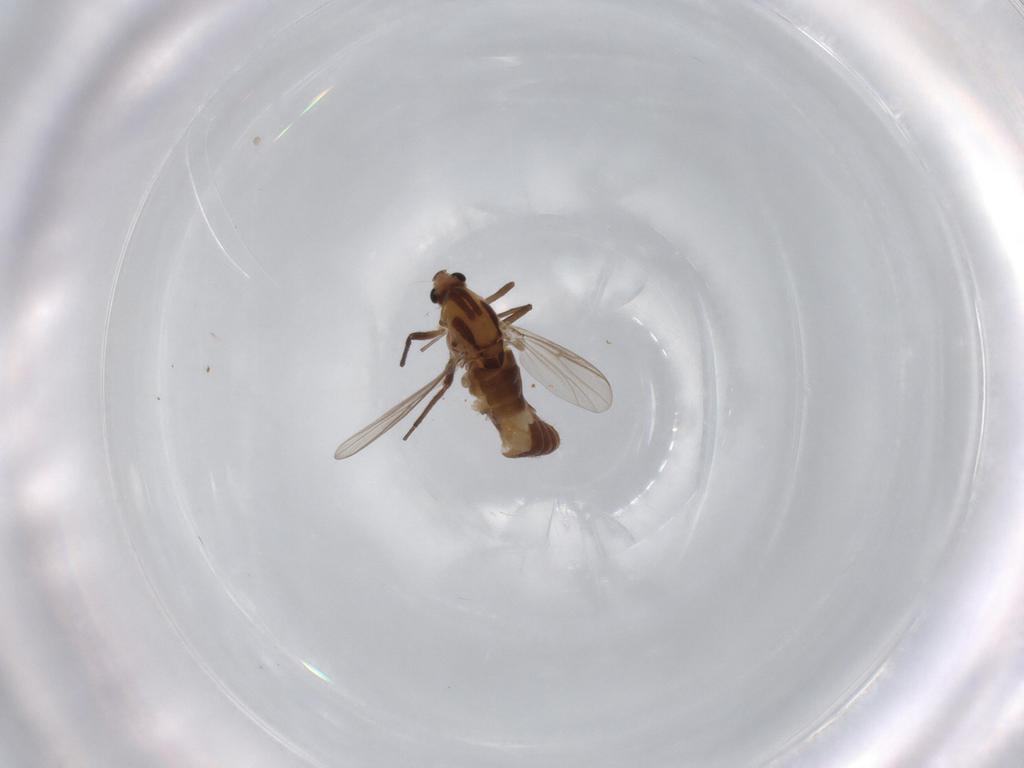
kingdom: Animalia
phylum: Arthropoda
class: Insecta
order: Diptera
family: Chironomidae
